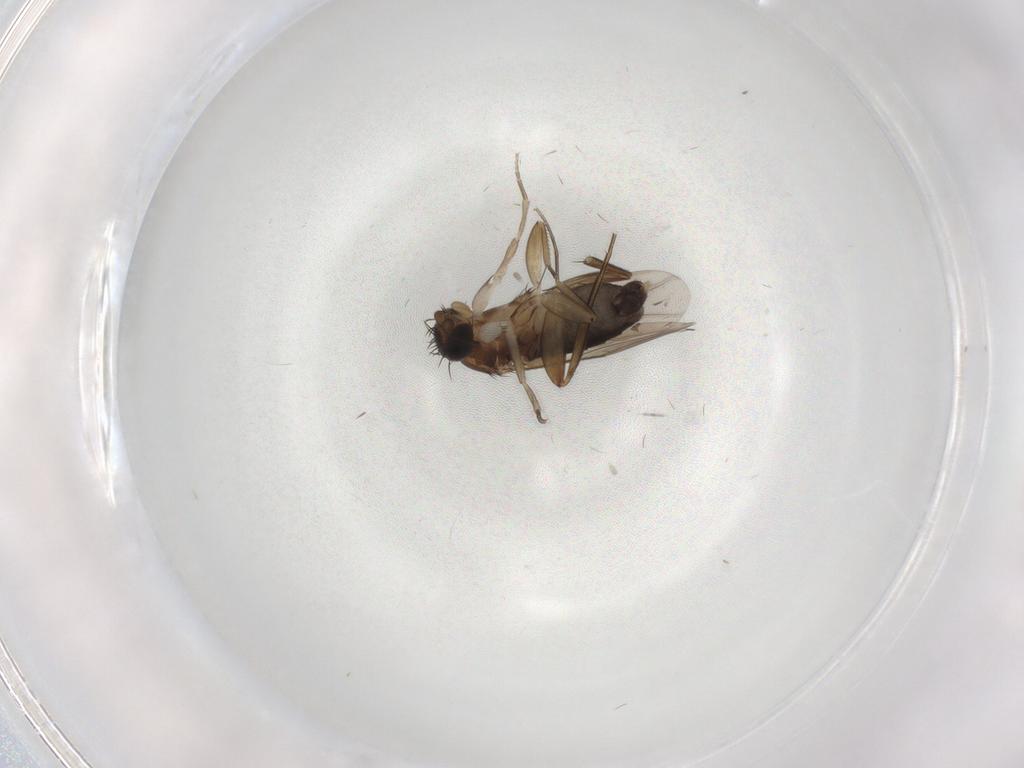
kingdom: Animalia
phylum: Arthropoda
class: Insecta
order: Diptera
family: Phoridae
